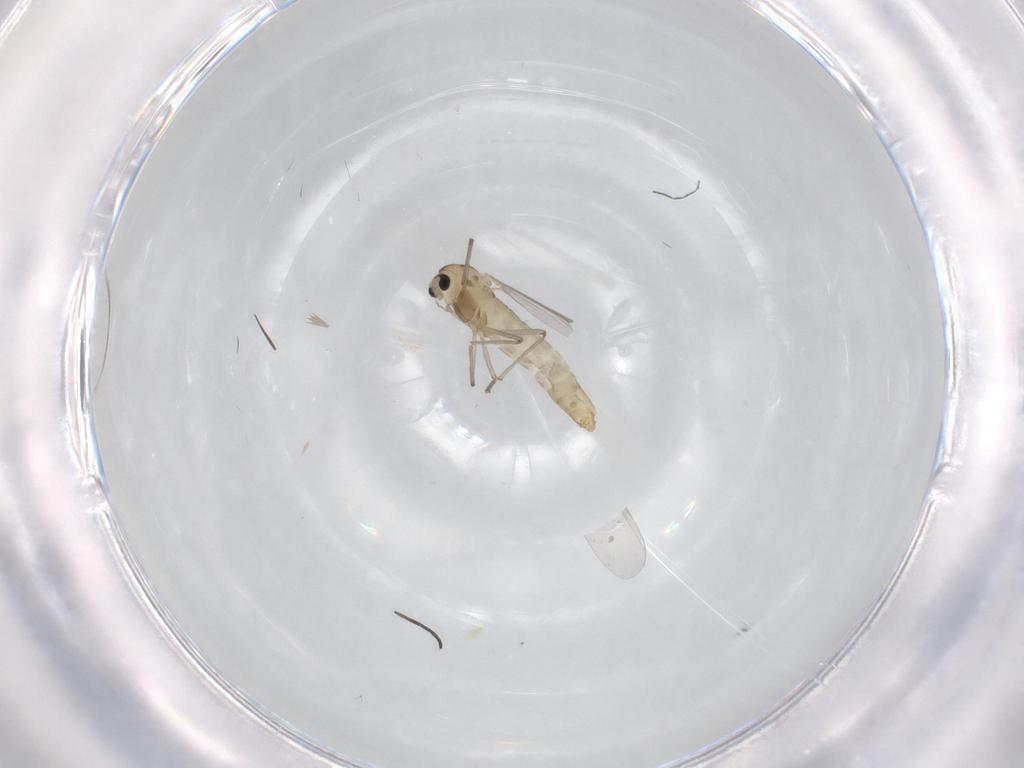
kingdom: Animalia
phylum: Arthropoda
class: Insecta
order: Diptera
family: Chironomidae
